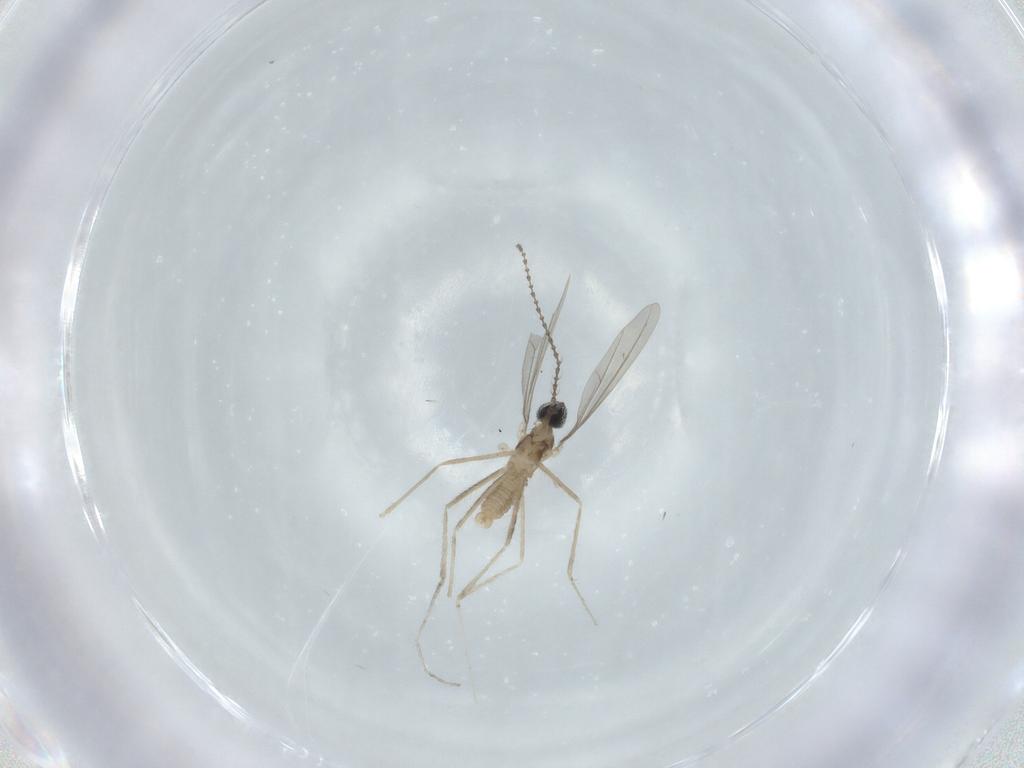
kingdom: Animalia
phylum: Arthropoda
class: Insecta
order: Diptera
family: Chironomidae
